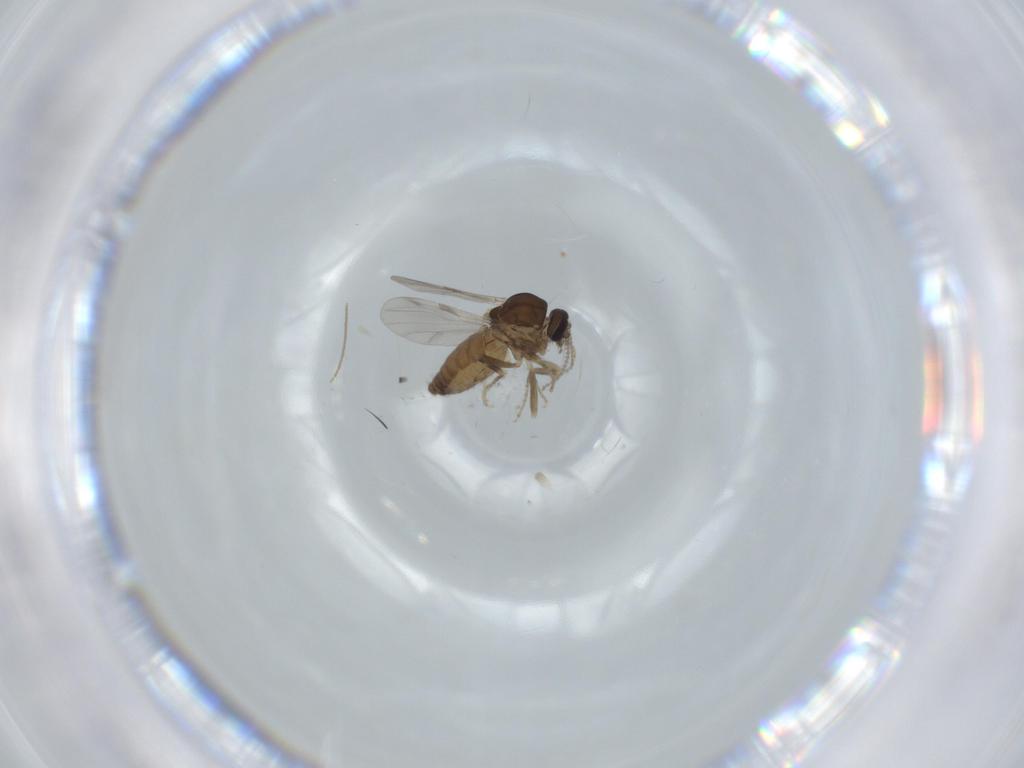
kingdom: Animalia
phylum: Arthropoda
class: Insecta
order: Diptera
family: Ceratopogonidae
